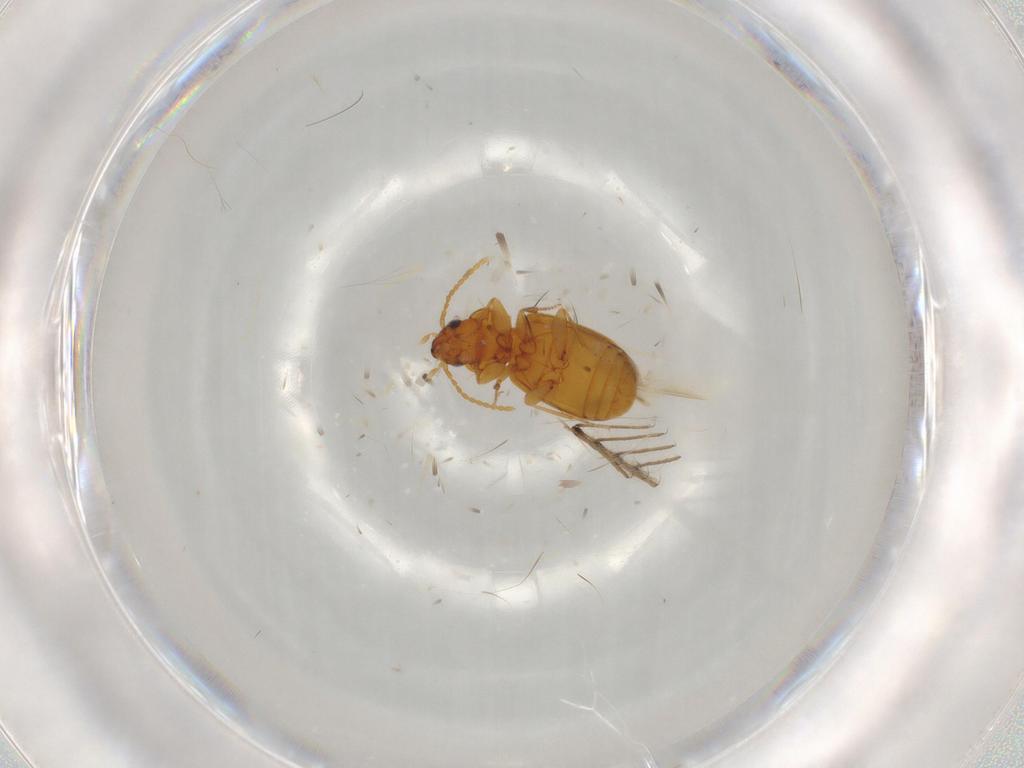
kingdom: Animalia
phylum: Arthropoda
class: Insecta
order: Coleoptera
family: Carabidae
